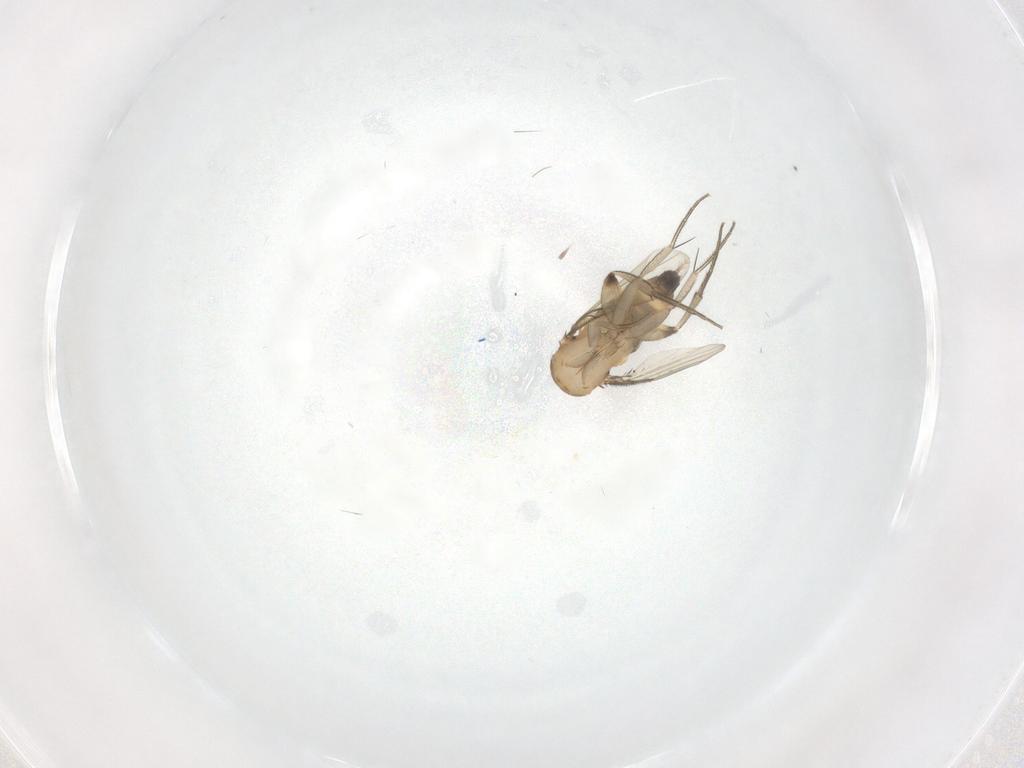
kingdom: Animalia
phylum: Arthropoda
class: Insecta
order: Diptera
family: Phoridae
